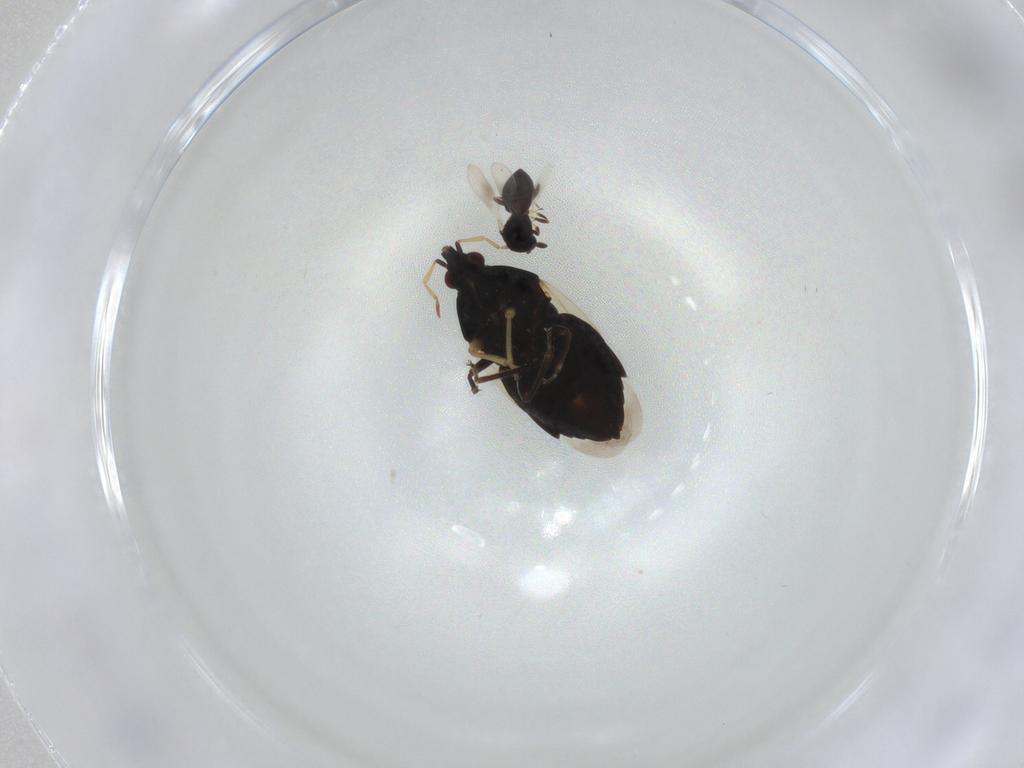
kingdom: Animalia
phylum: Arthropoda
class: Insecta
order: Hymenoptera
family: Platygastridae
